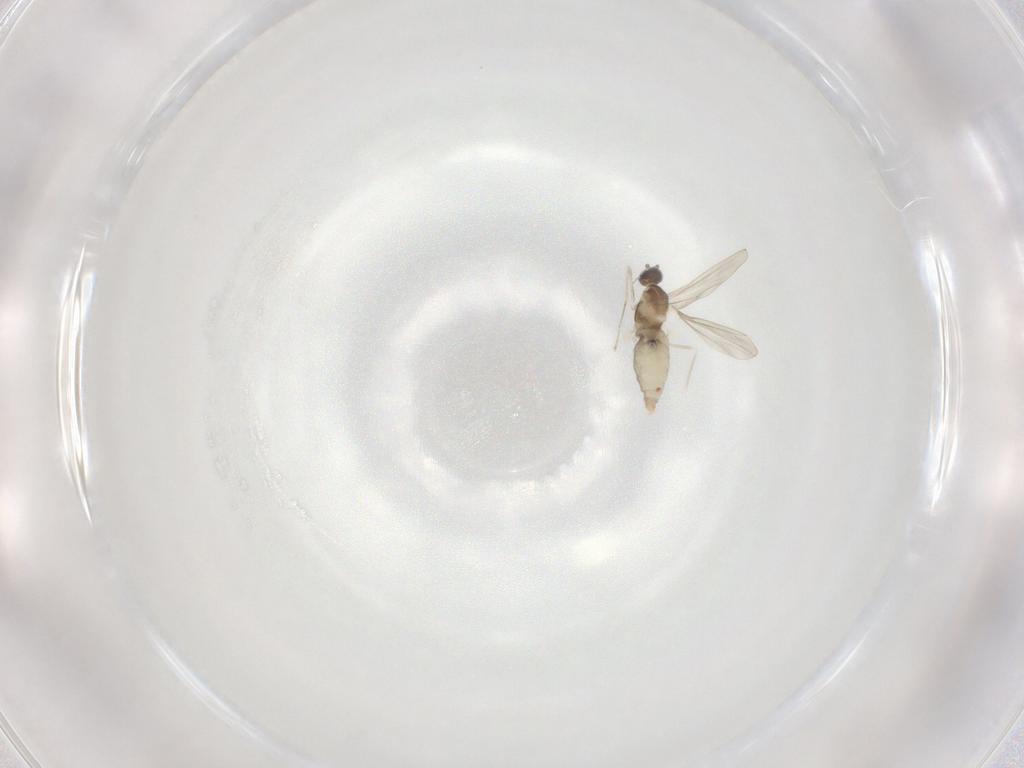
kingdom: Animalia
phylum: Arthropoda
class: Insecta
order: Diptera
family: Cecidomyiidae
